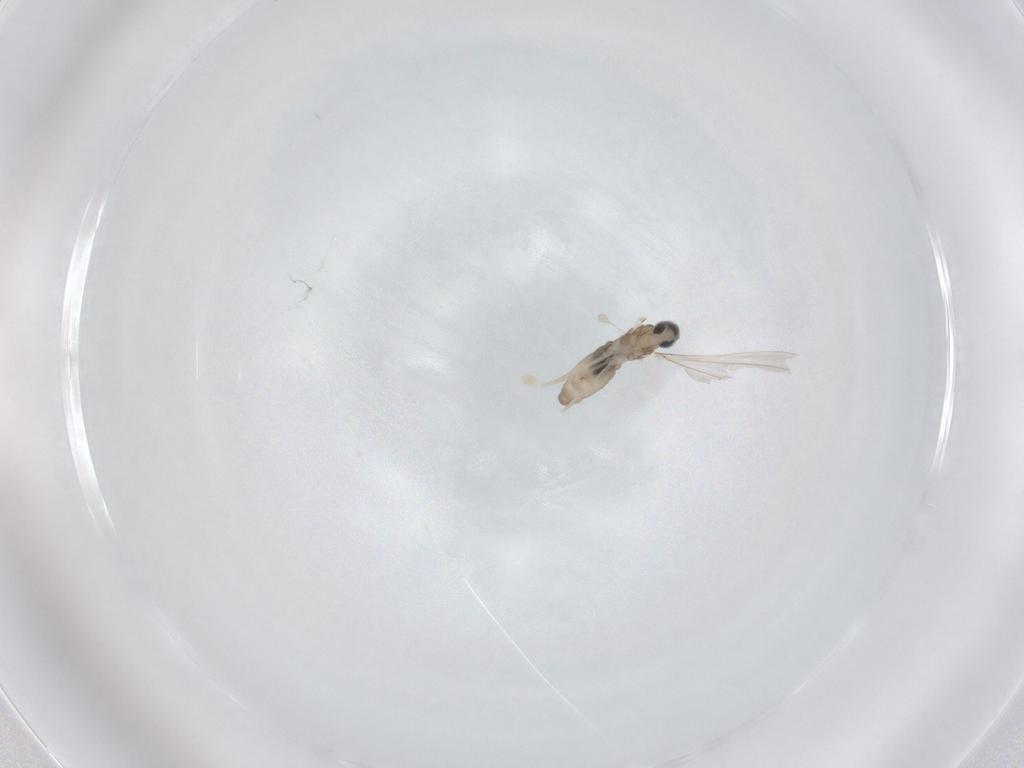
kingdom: Animalia
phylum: Arthropoda
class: Insecta
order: Diptera
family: Cecidomyiidae
